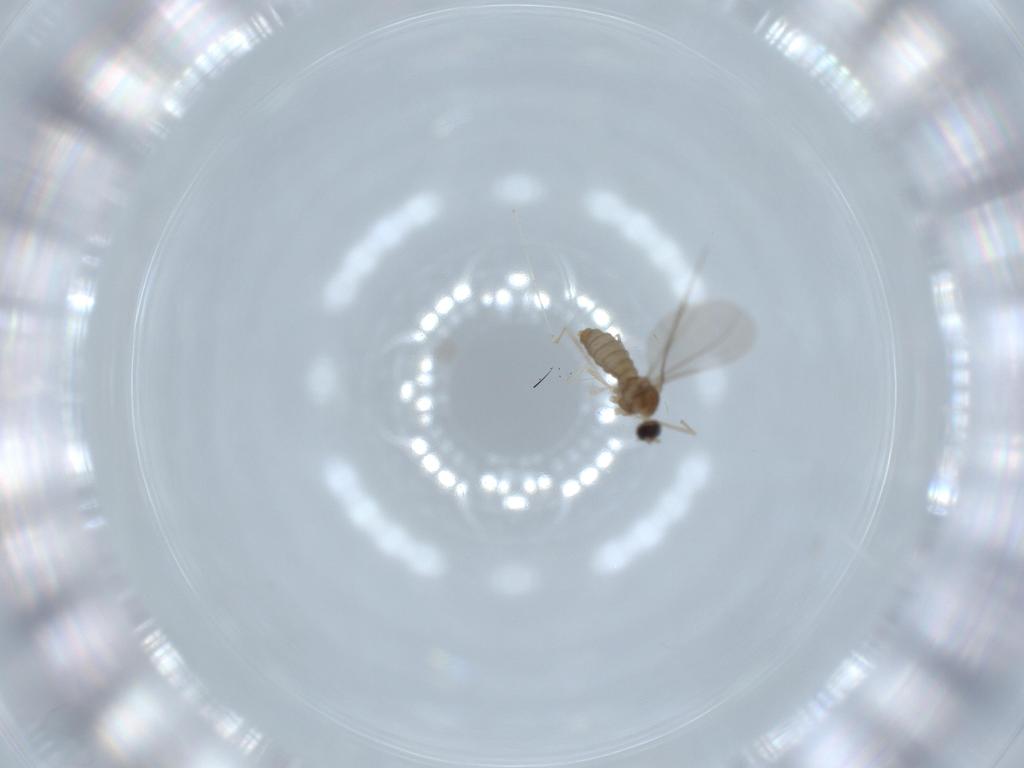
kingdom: Animalia
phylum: Arthropoda
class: Insecta
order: Diptera
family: Cecidomyiidae
